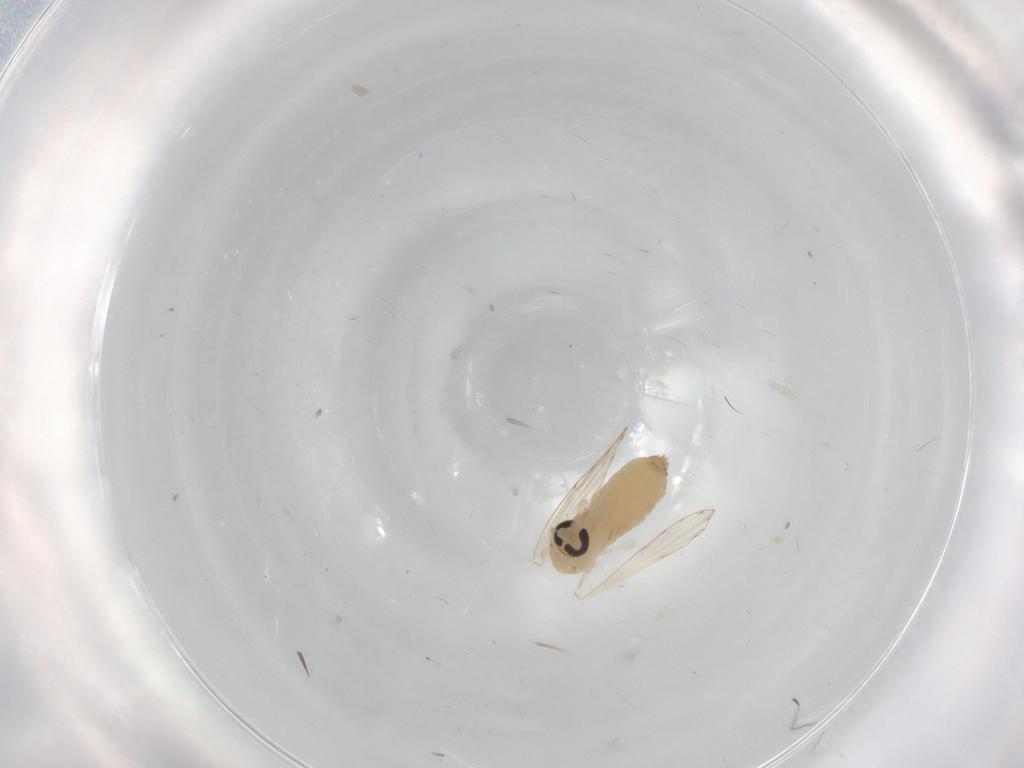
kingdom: Animalia
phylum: Arthropoda
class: Insecta
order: Diptera
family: Psychodidae
